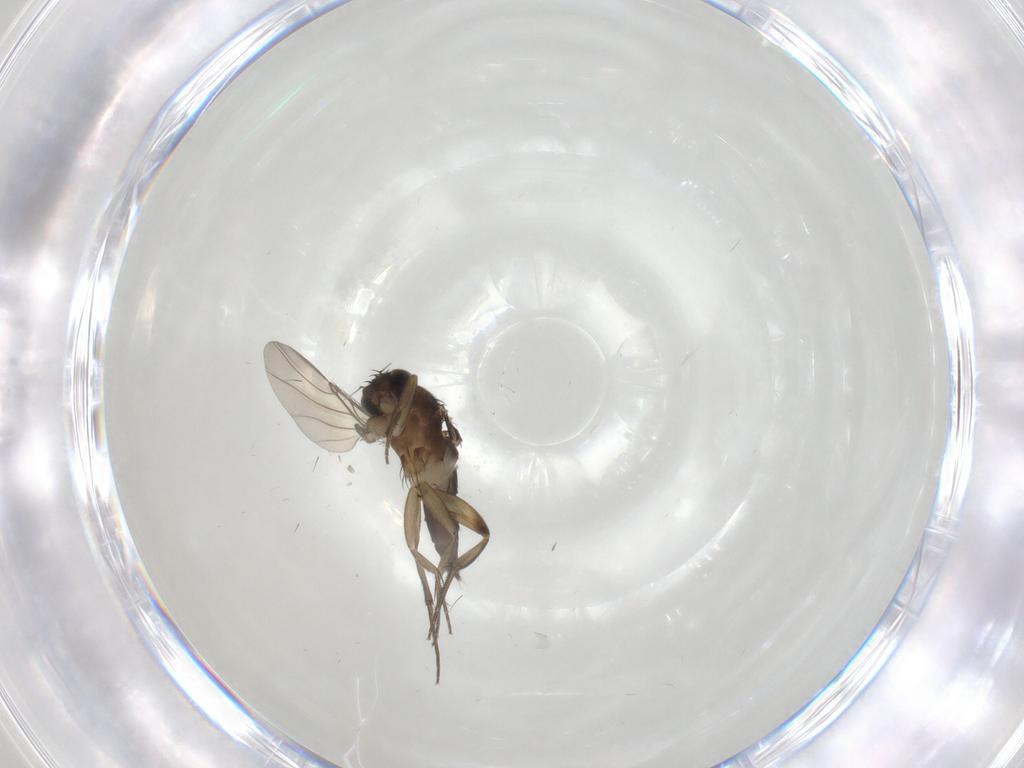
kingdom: Animalia
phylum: Arthropoda
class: Insecta
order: Diptera
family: Phoridae
